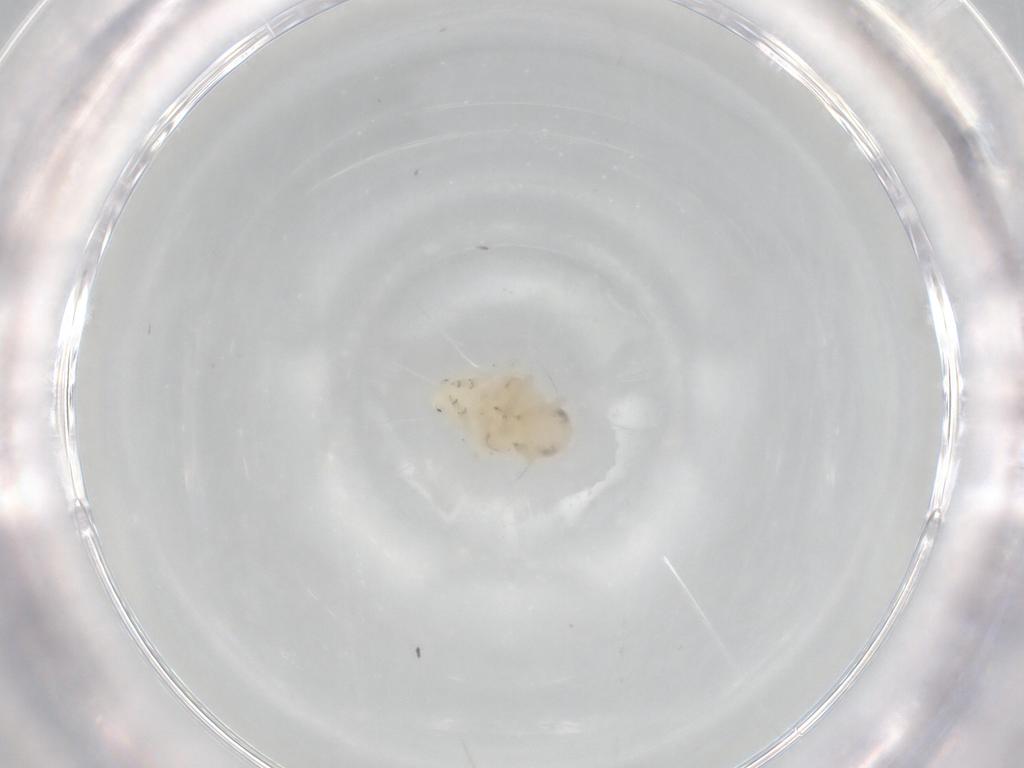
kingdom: Animalia
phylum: Arthropoda
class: Insecta
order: Hemiptera
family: Nogodinidae
